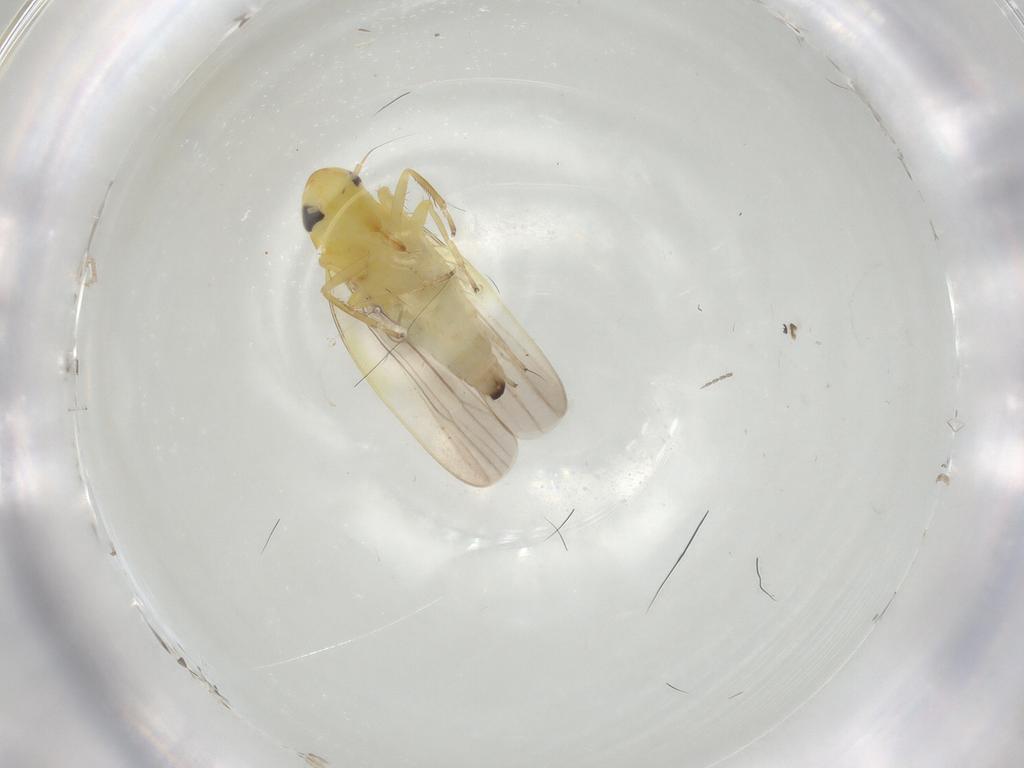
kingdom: Animalia
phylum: Arthropoda
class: Insecta
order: Hemiptera
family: Cicadellidae
